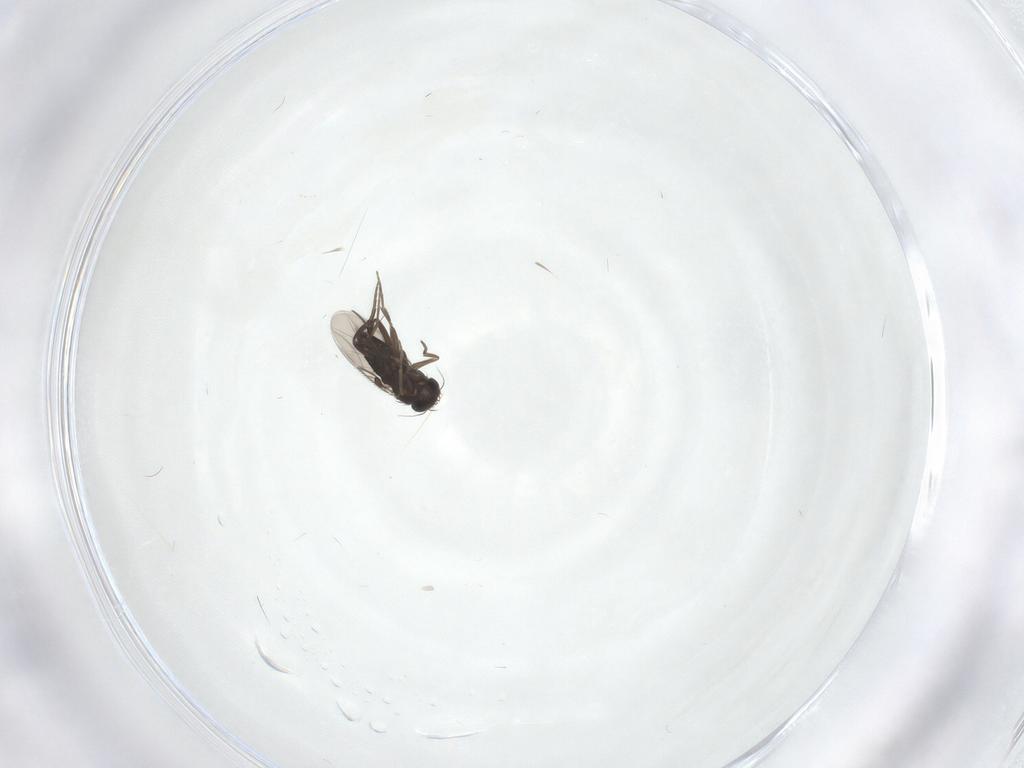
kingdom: Animalia
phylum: Arthropoda
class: Insecta
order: Diptera
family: Phoridae
